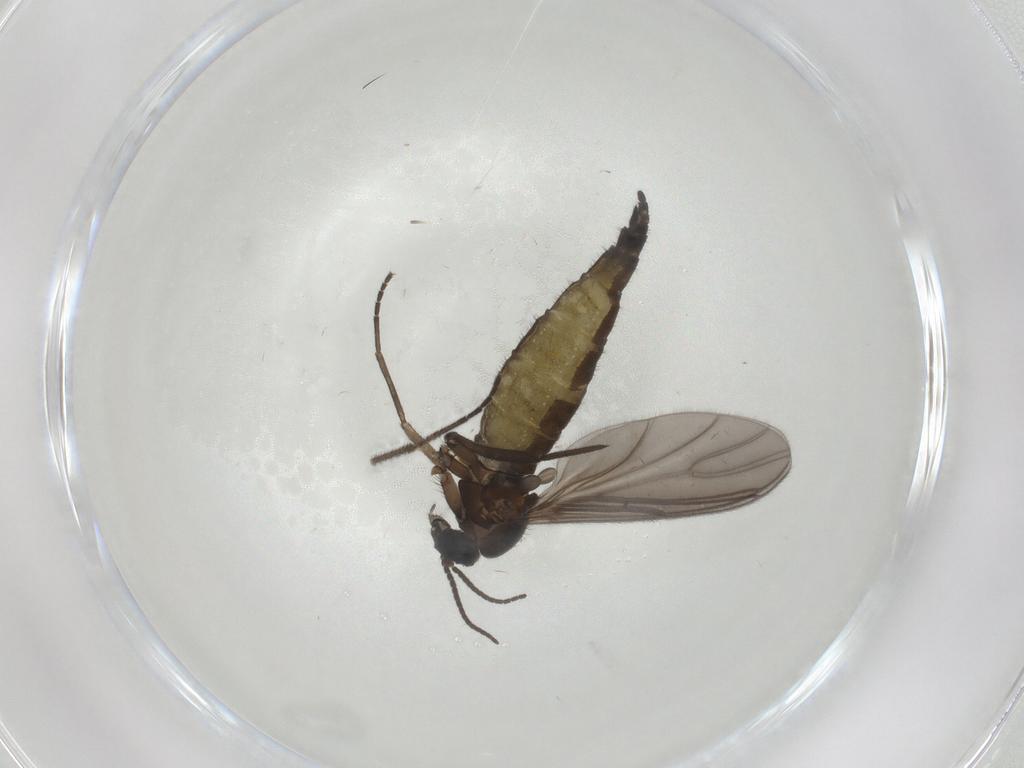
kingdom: Animalia
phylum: Arthropoda
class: Insecta
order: Diptera
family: Sciaridae
